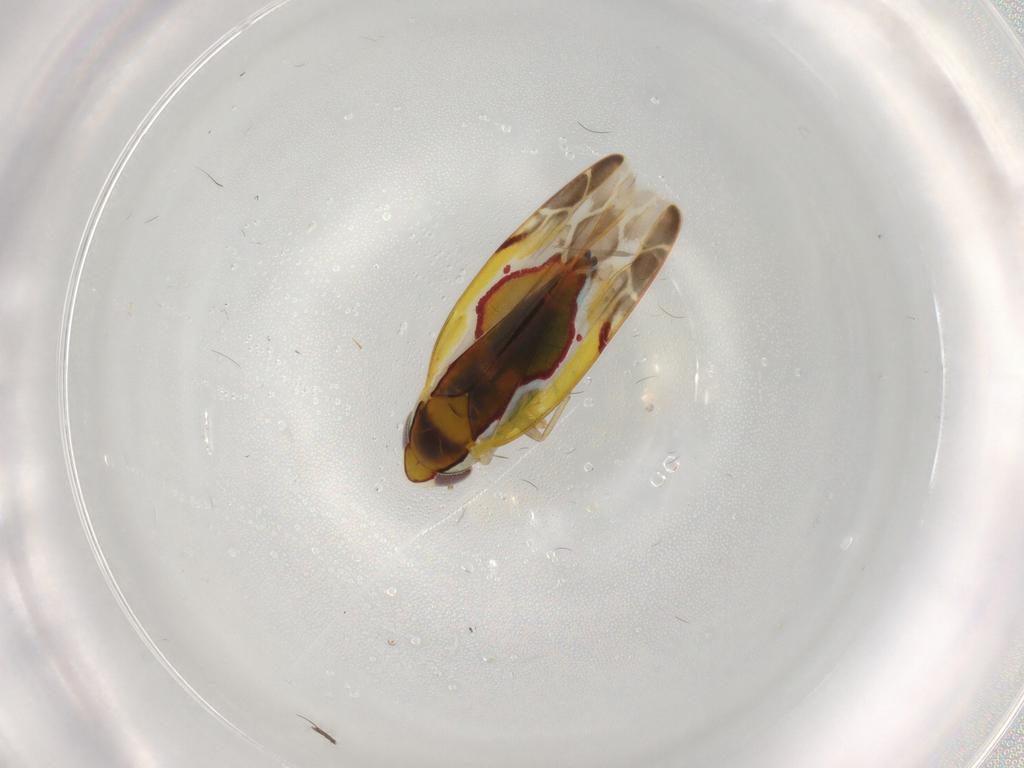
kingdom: Animalia
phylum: Arthropoda
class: Insecta
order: Hemiptera
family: Cicadellidae
